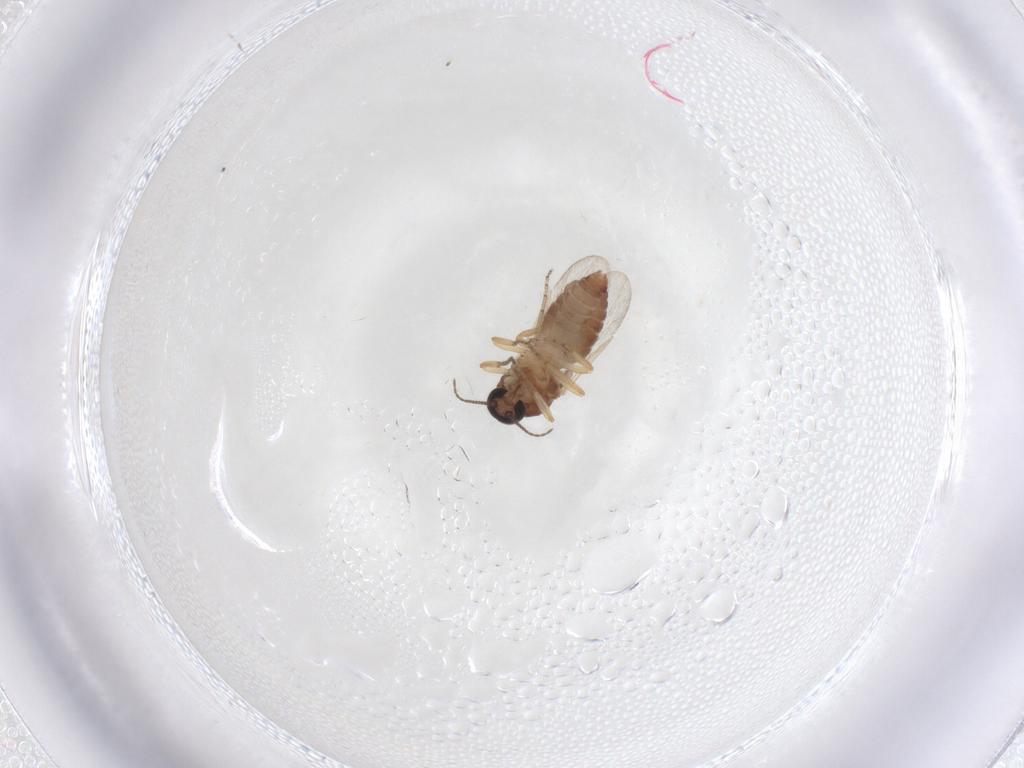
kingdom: Animalia
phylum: Arthropoda
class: Insecta
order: Diptera
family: Ceratopogonidae
